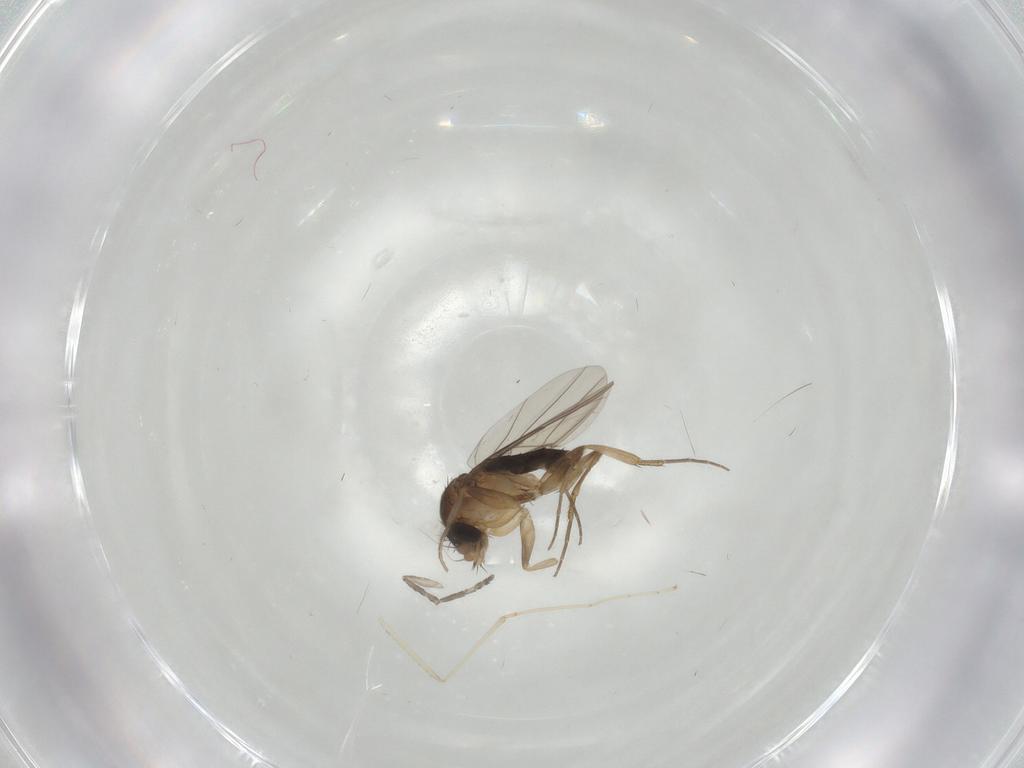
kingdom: Animalia
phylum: Arthropoda
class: Insecta
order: Diptera
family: Phoridae
